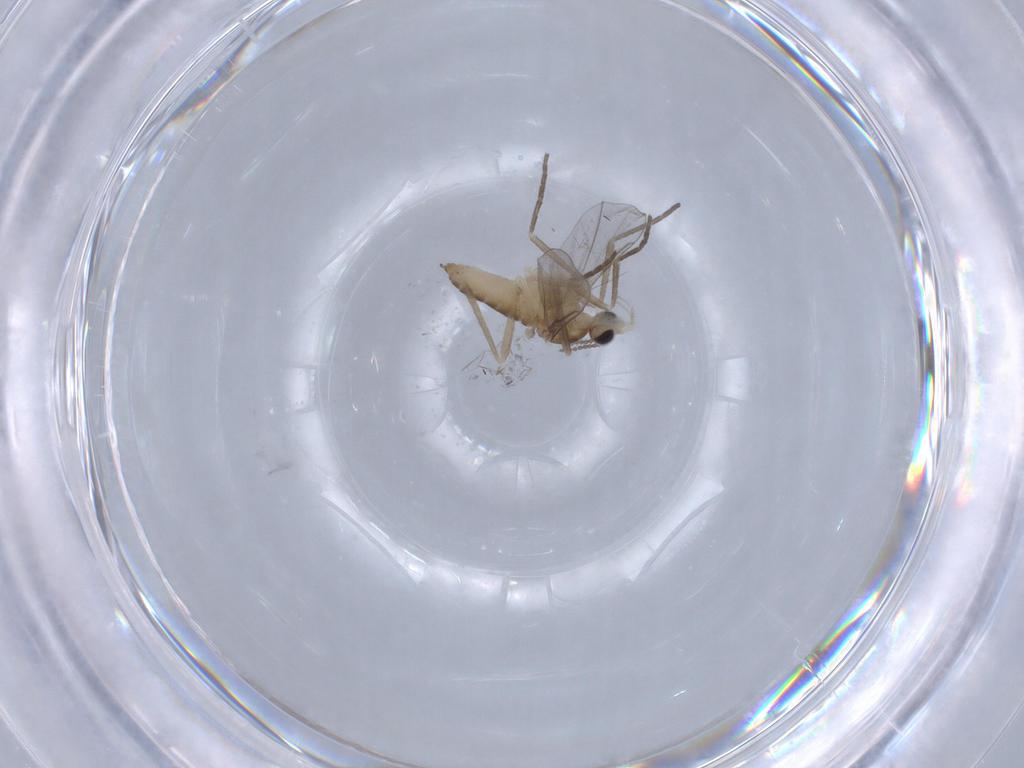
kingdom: Animalia
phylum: Arthropoda
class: Insecta
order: Diptera
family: Cecidomyiidae
